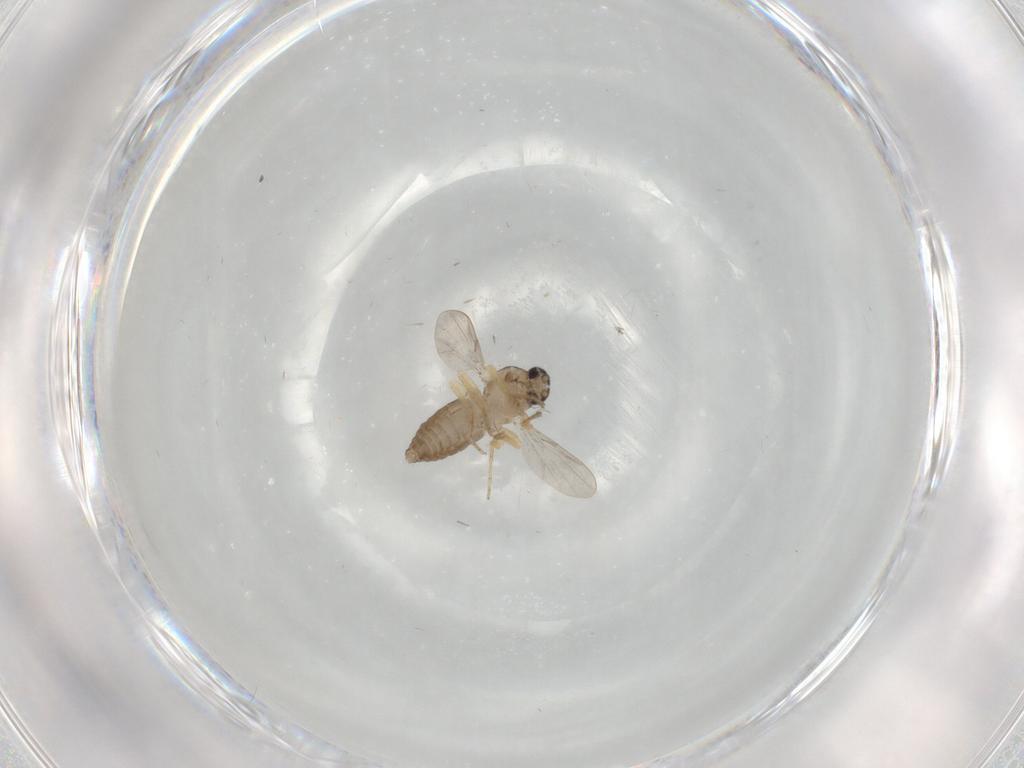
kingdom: Animalia
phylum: Arthropoda
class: Insecta
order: Diptera
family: Ceratopogonidae
